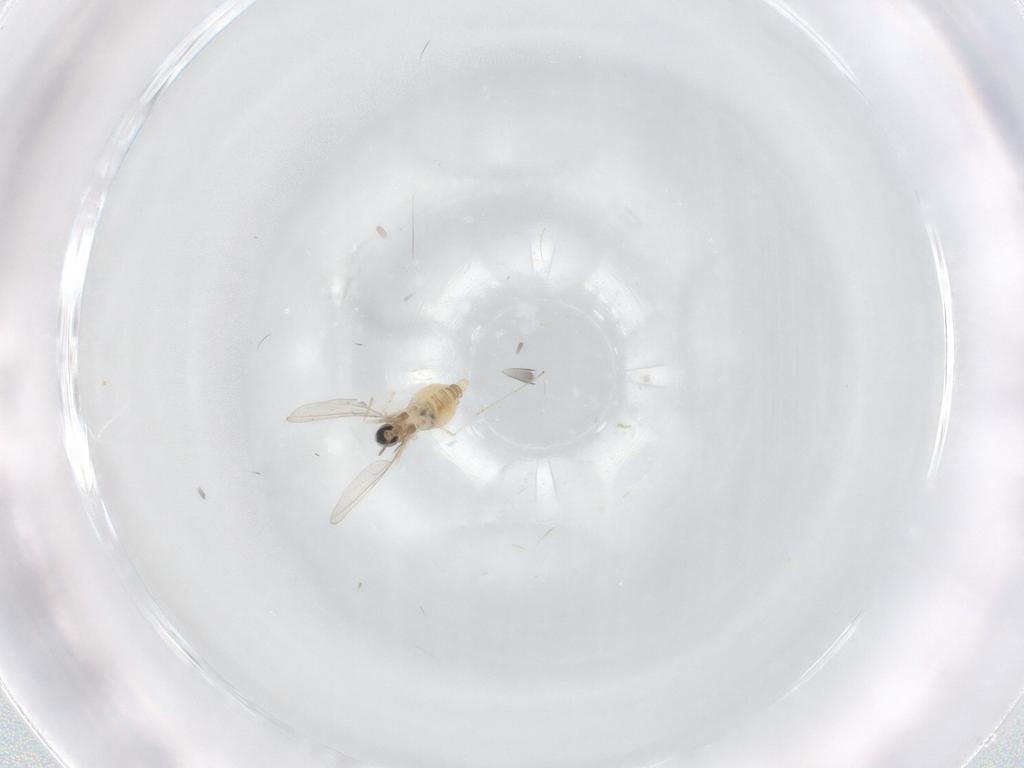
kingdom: Animalia
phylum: Arthropoda
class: Insecta
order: Diptera
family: Cecidomyiidae
